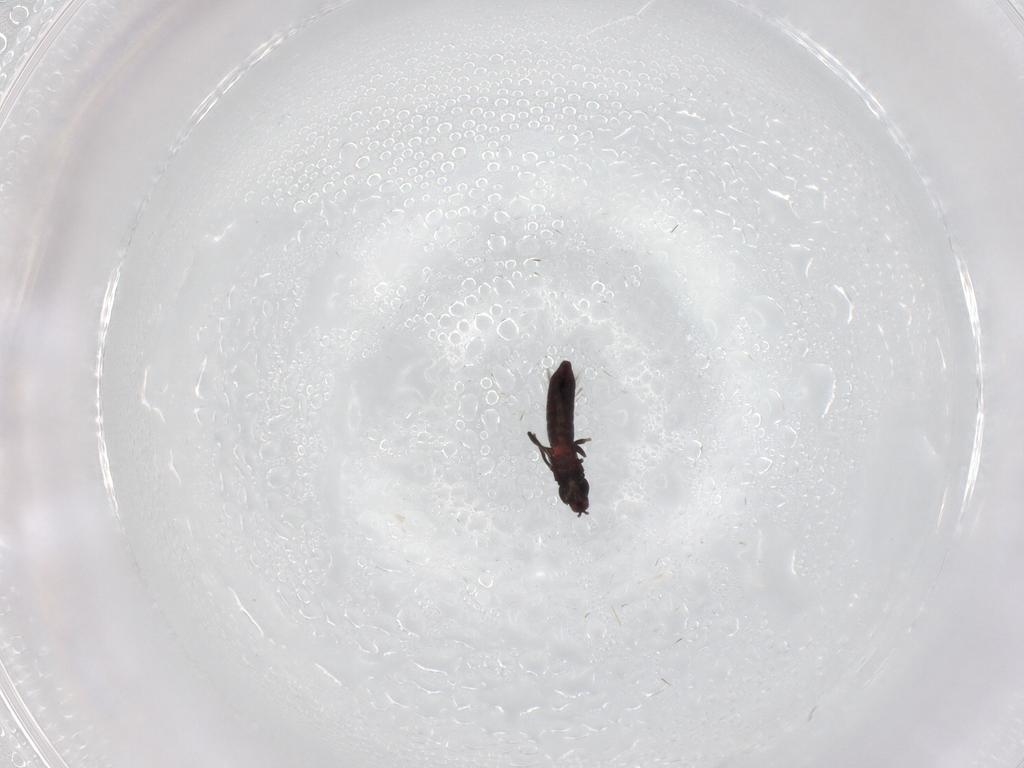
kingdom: Animalia
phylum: Arthropoda
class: Insecta
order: Thysanoptera
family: Phlaeothripidae
